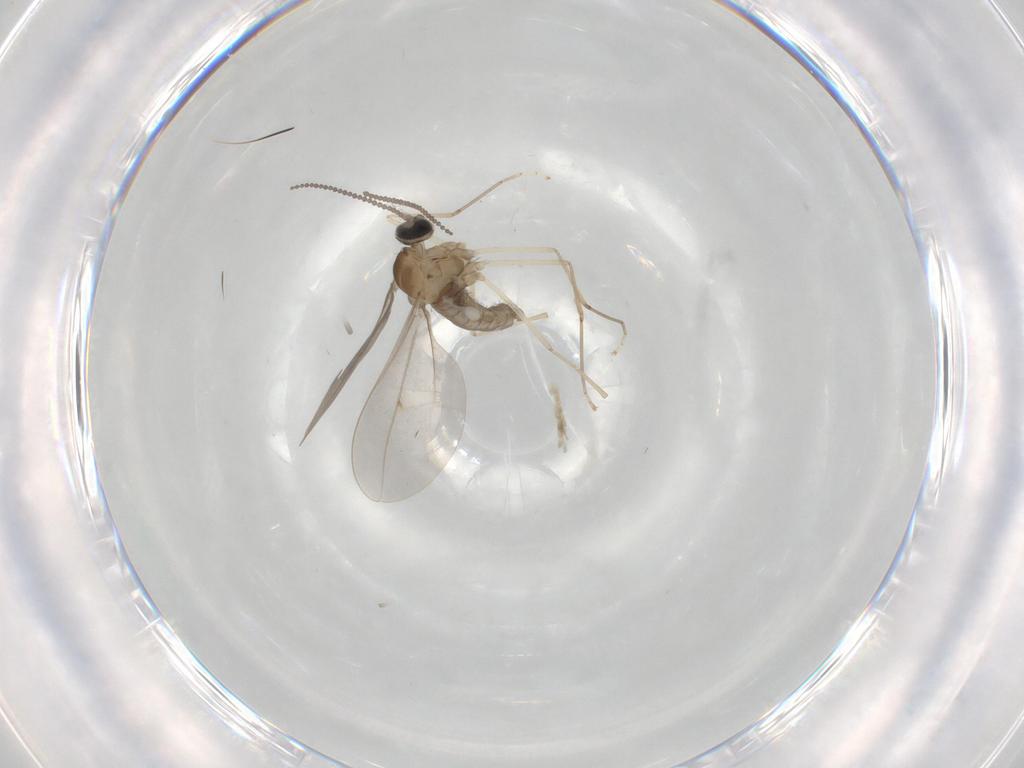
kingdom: Animalia
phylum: Arthropoda
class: Insecta
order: Diptera
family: Cecidomyiidae
